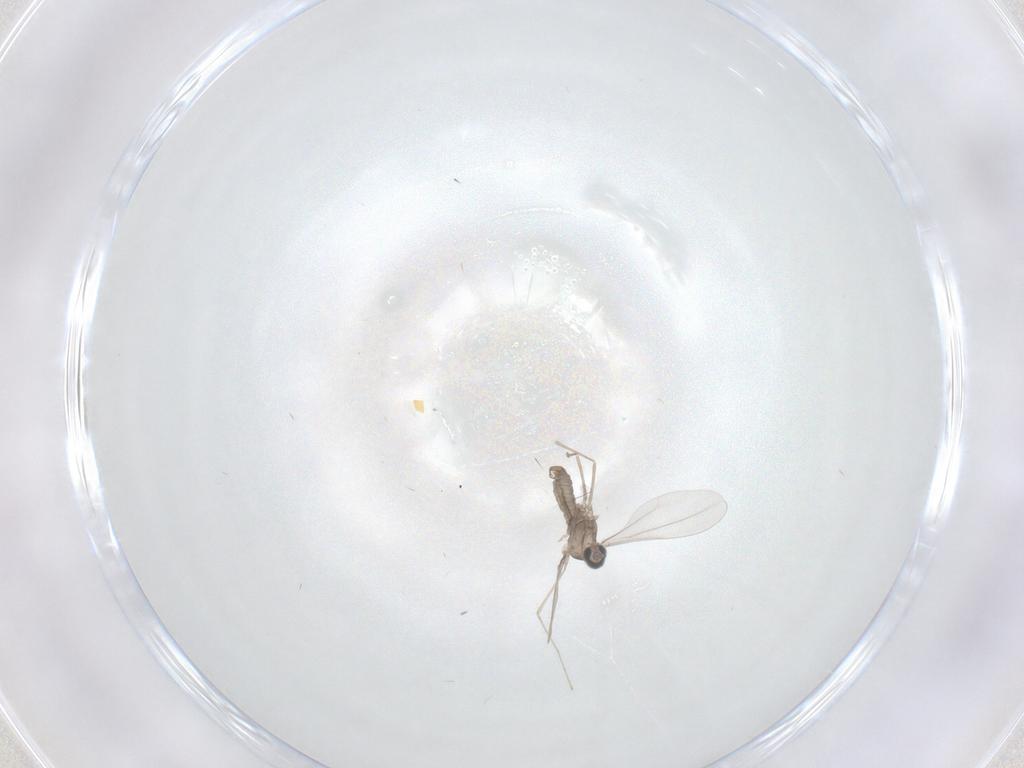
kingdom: Animalia
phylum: Arthropoda
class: Insecta
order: Diptera
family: Cecidomyiidae
